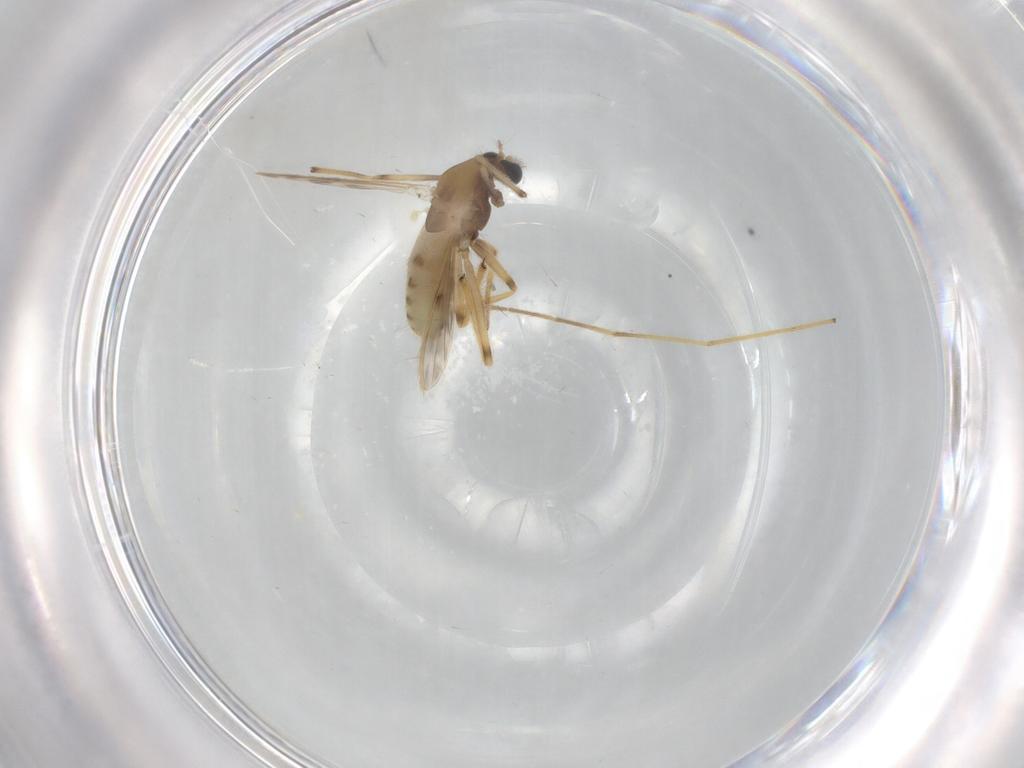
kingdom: Animalia
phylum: Arthropoda
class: Insecta
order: Diptera
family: Chironomidae
